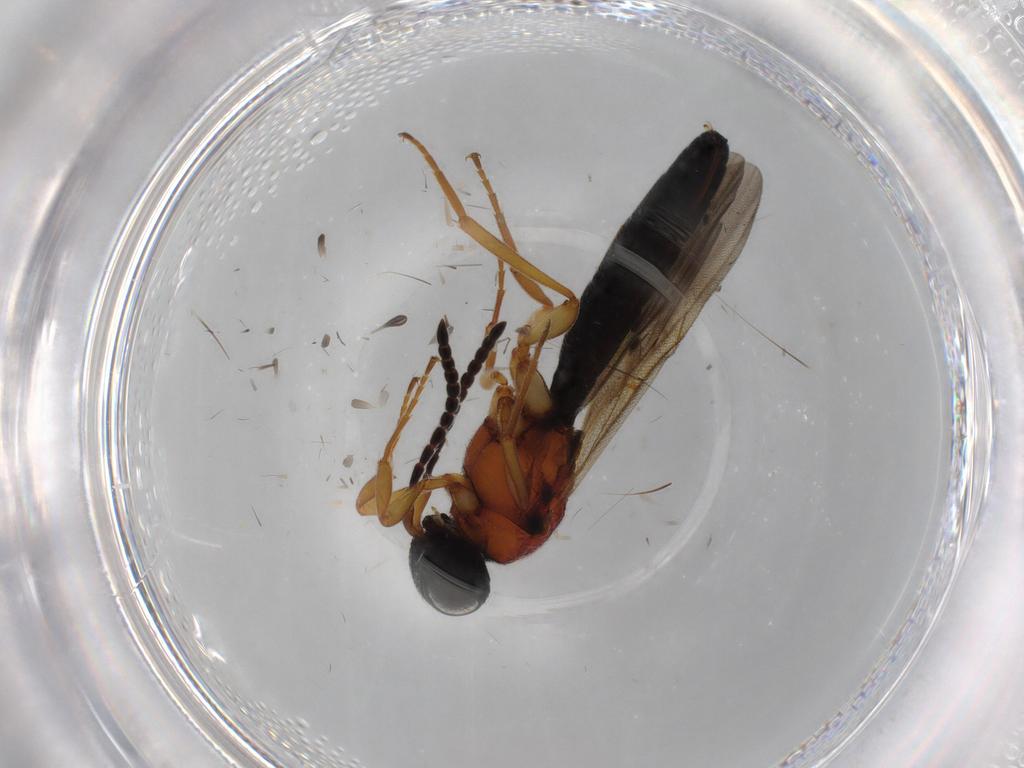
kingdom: Animalia
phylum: Arthropoda
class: Insecta
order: Hymenoptera
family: Scelionidae
